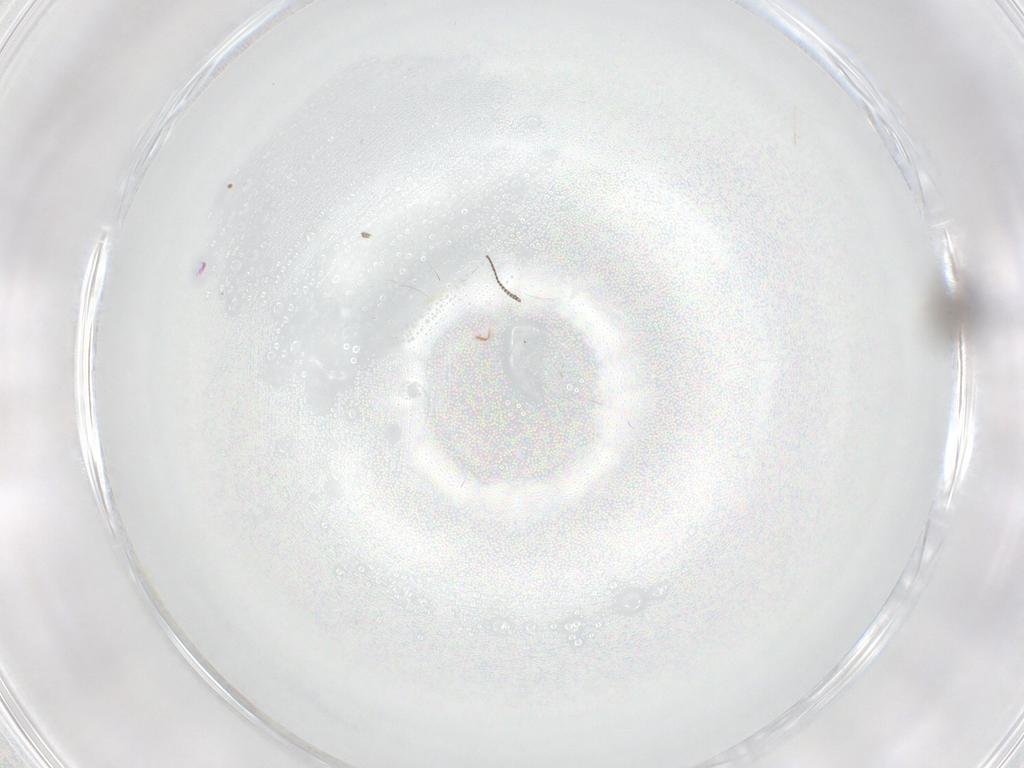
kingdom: Animalia
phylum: Arthropoda
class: Insecta
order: Diptera
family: Chironomidae
